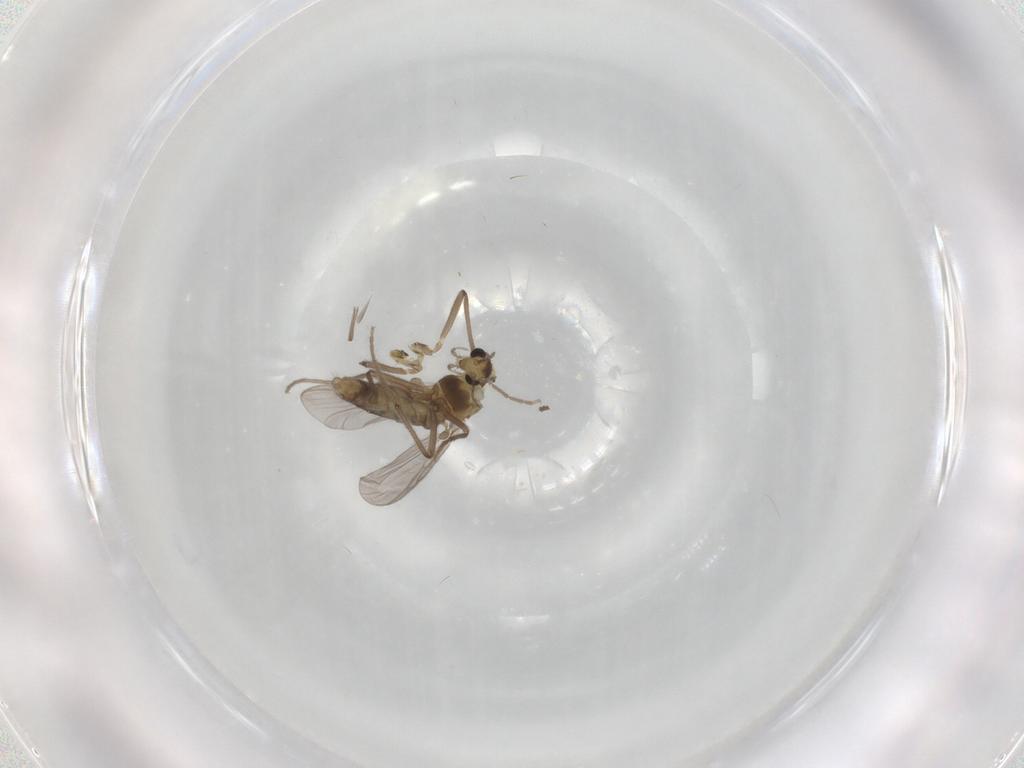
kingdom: Animalia
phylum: Arthropoda
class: Insecta
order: Diptera
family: Chironomidae
